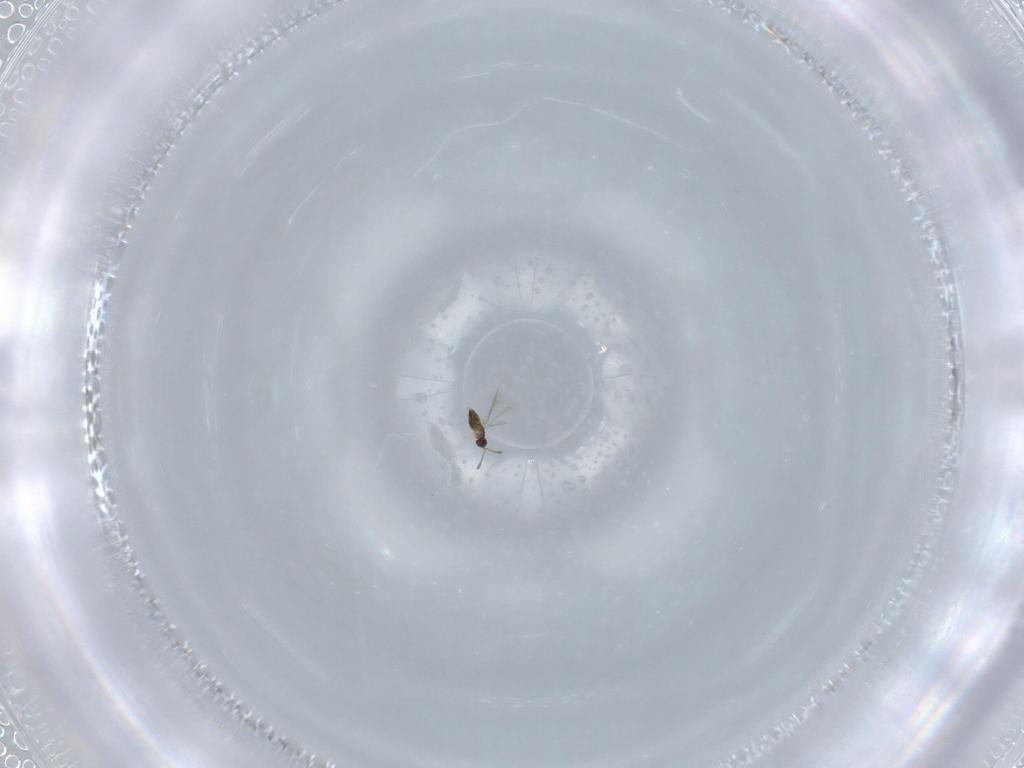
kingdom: Animalia
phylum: Arthropoda
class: Insecta
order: Hymenoptera
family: Mymaridae
